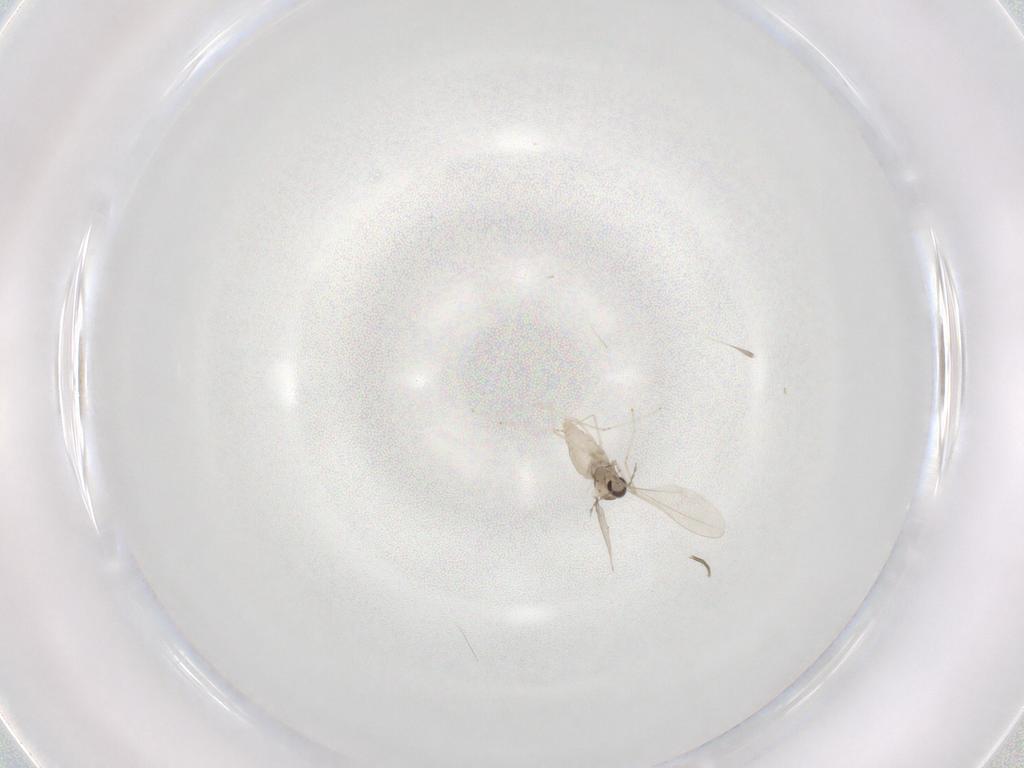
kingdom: Animalia
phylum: Arthropoda
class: Insecta
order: Diptera
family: Cecidomyiidae
